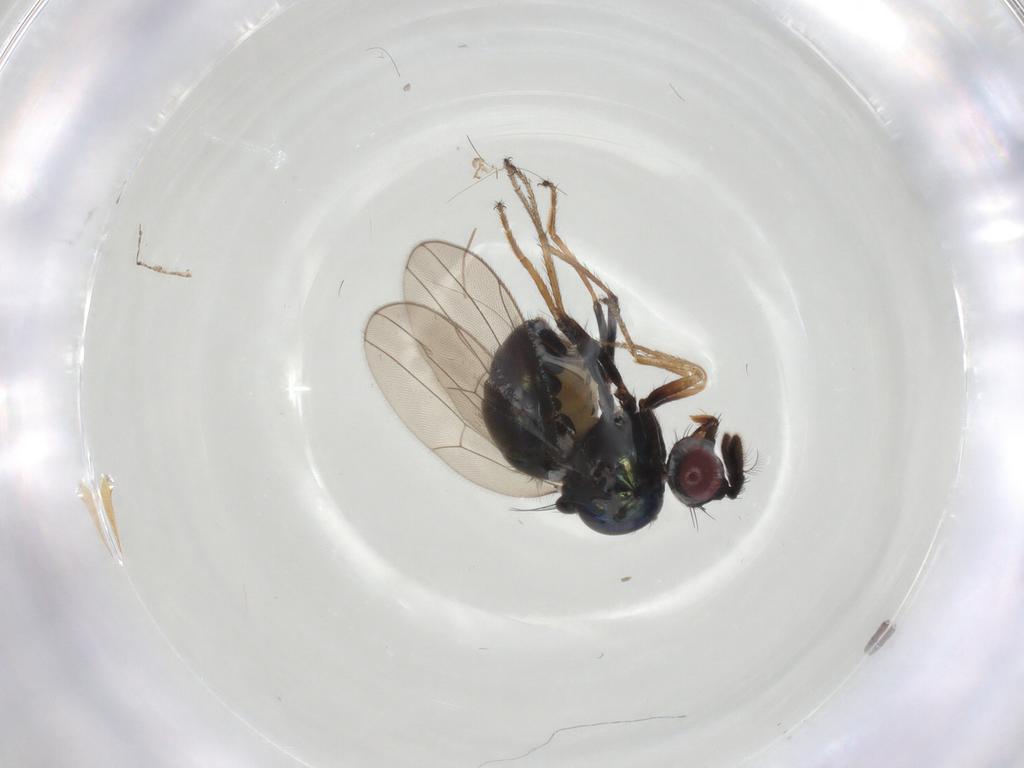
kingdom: Animalia
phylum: Arthropoda
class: Insecta
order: Diptera
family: Ephydridae
